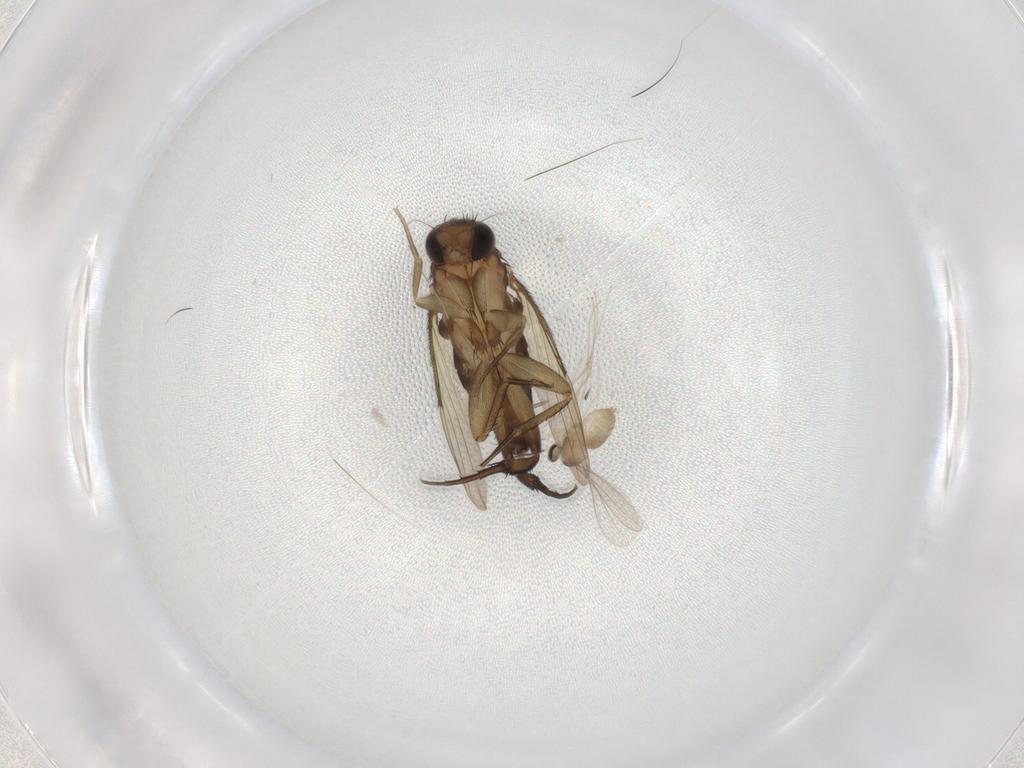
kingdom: Animalia
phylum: Arthropoda
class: Insecta
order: Diptera
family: Phoridae
